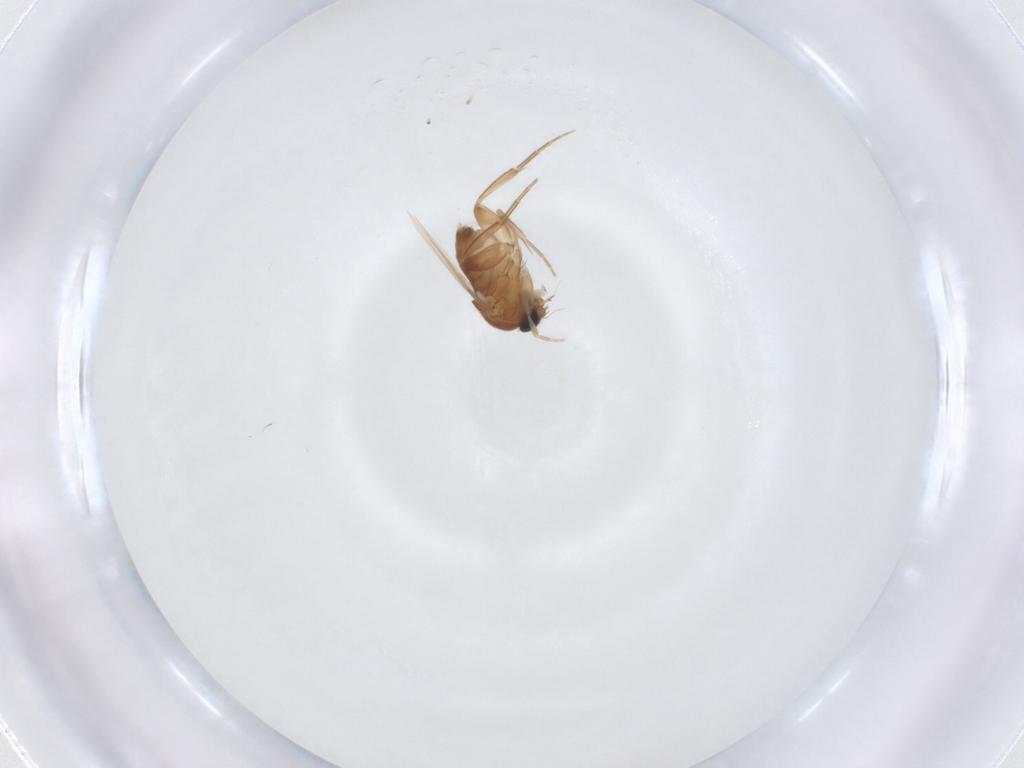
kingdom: Animalia
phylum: Arthropoda
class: Insecta
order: Diptera
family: Phoridae
